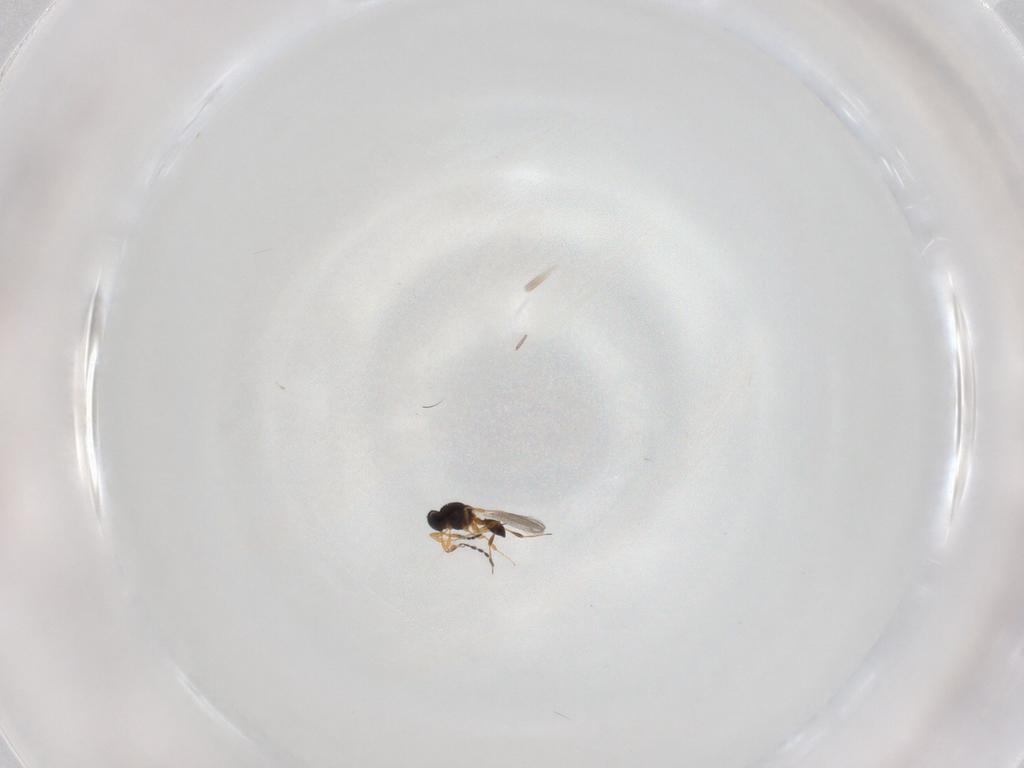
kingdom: Animalia
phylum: Arthropoda
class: Insecta
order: Hymenoptera
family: Platygastridae
